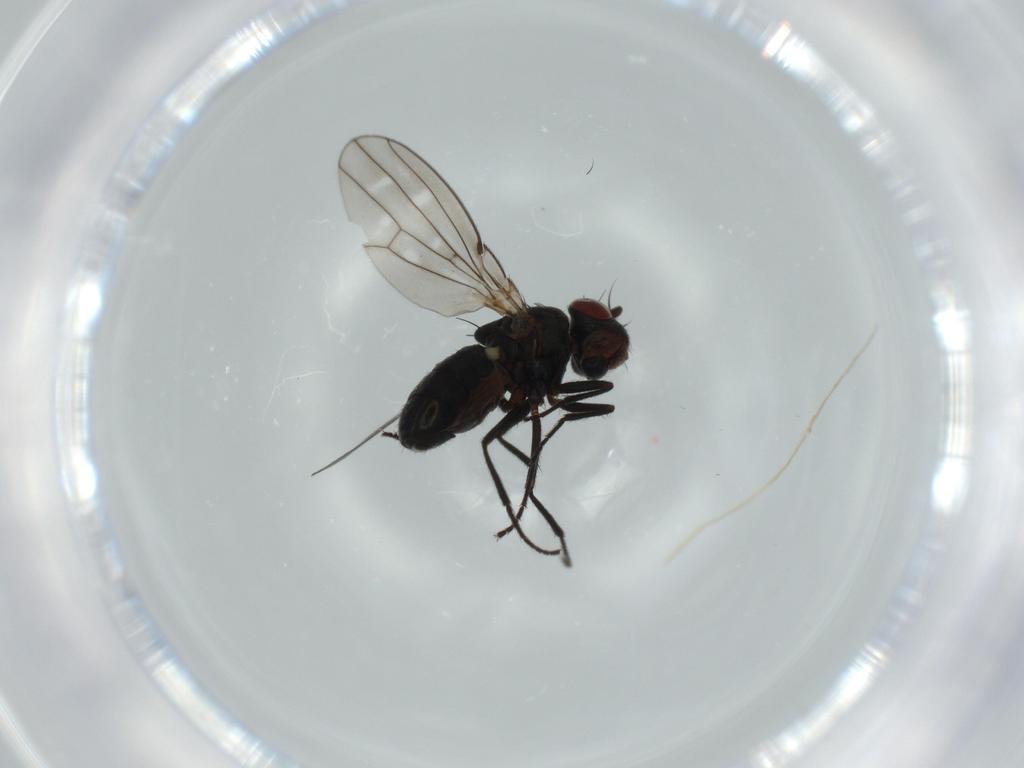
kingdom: Animalia
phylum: Arthropoda
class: Insecta
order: Diptera
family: Ephydridae
